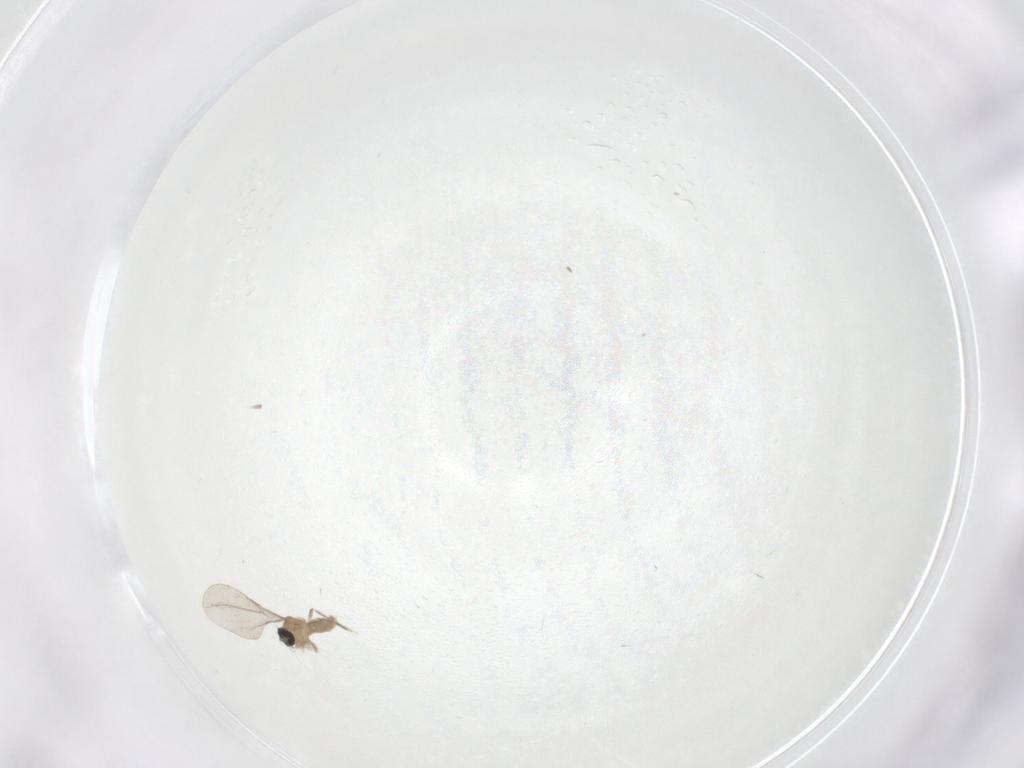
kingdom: Animalia
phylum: Arthropoda
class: Insecta
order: Diptera
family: Cecidomyiidae
